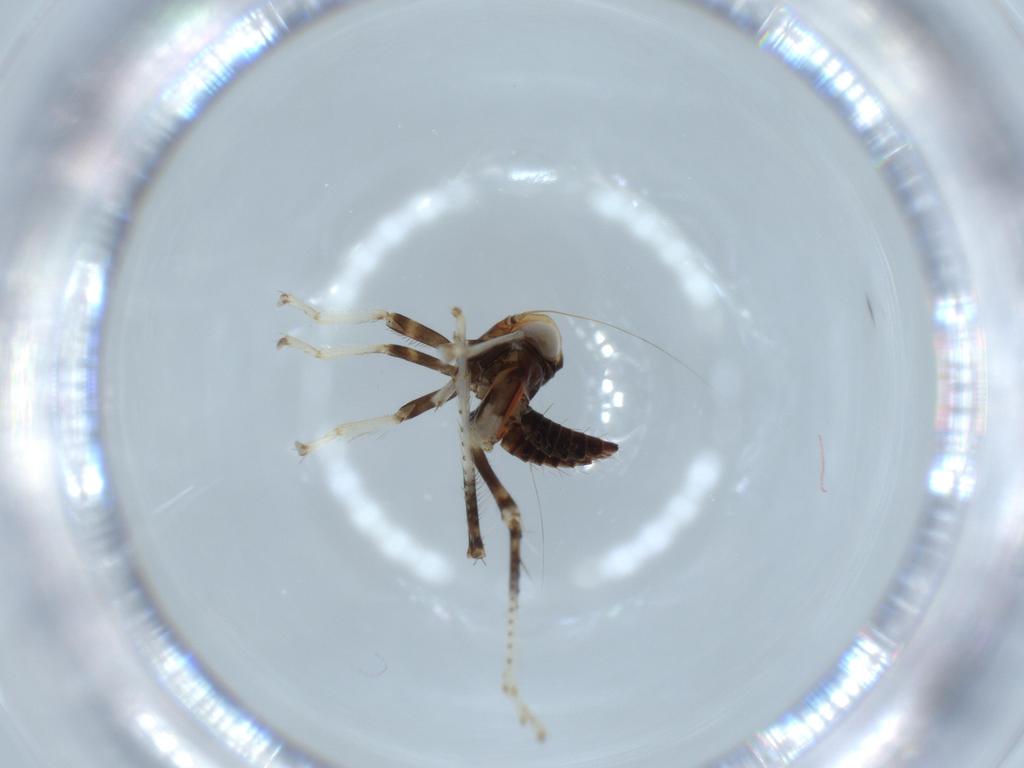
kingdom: Animalia
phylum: Arthropoda
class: Insecta
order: Hemiptera
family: Cicadellidae
